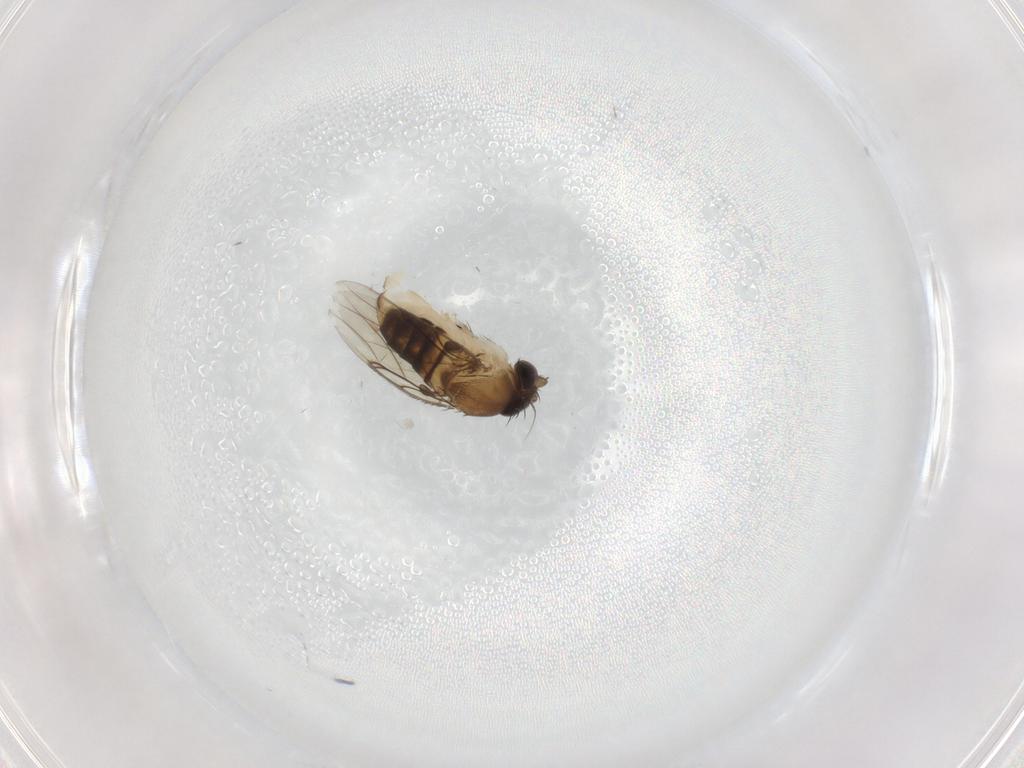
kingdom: Animalia
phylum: Arthropoda
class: Insecta
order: Diptera
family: Phoridae
